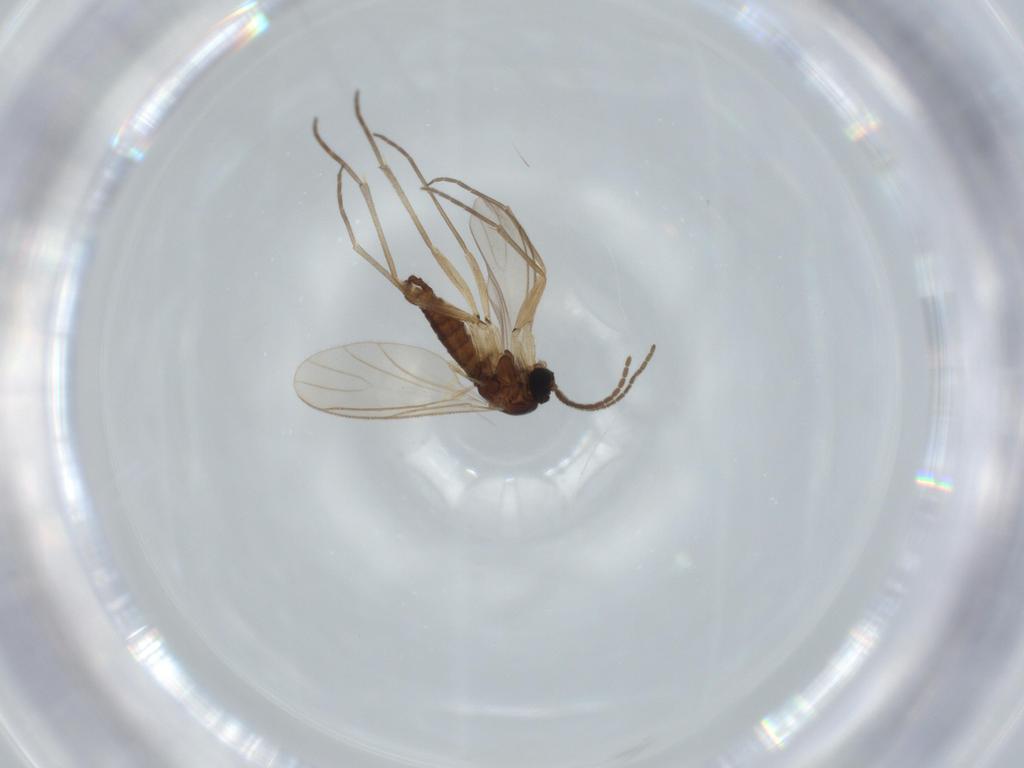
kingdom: Animalia
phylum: Arthropoda
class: Insecta
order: Diptera
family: Sciaridae
